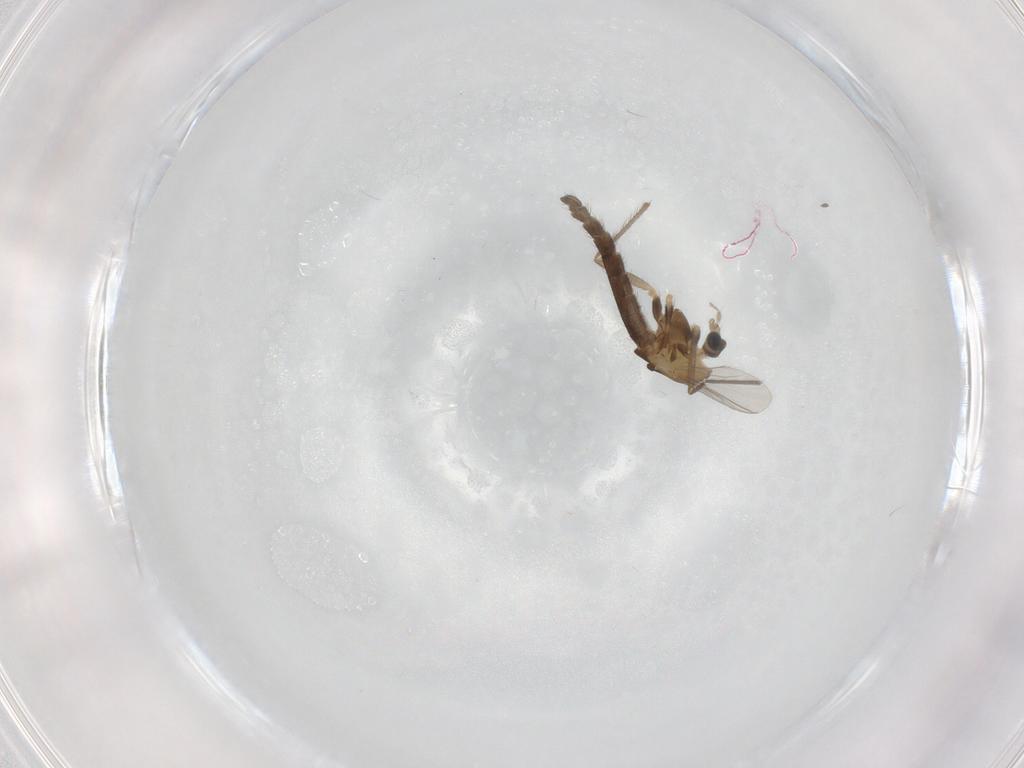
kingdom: Animalia
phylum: Arthropoda
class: Insecta
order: Diptera
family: Chironomidae
